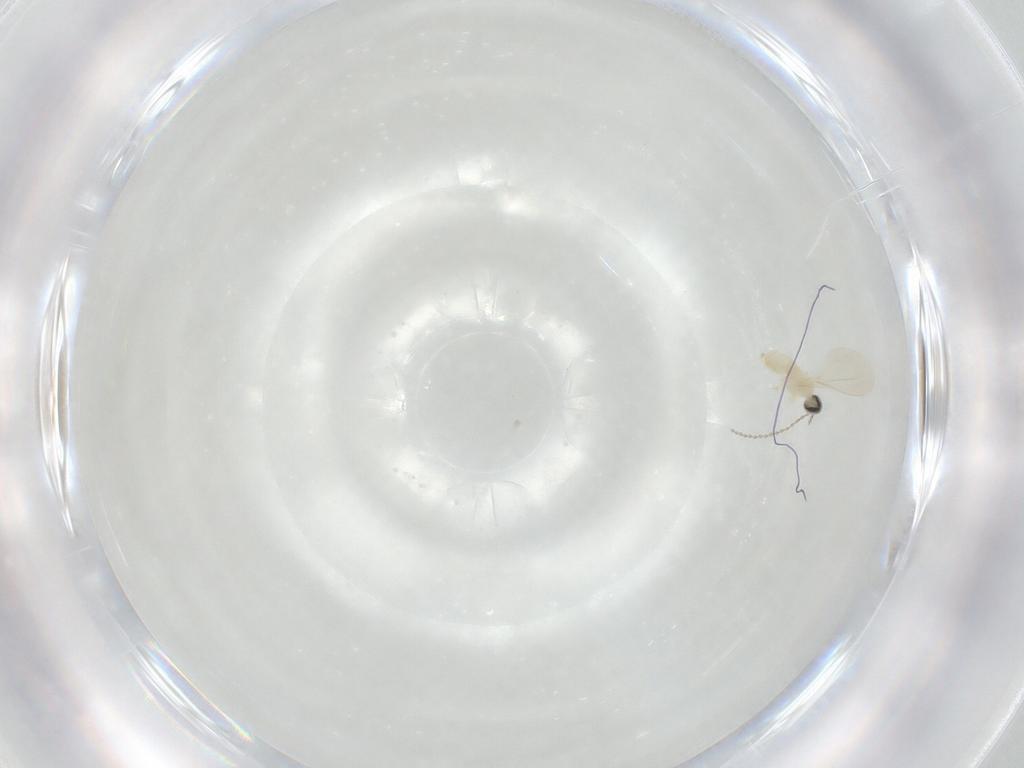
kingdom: Animalia
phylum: Arthropoda
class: Insecta
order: Diptera
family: Cecidomyiidae
